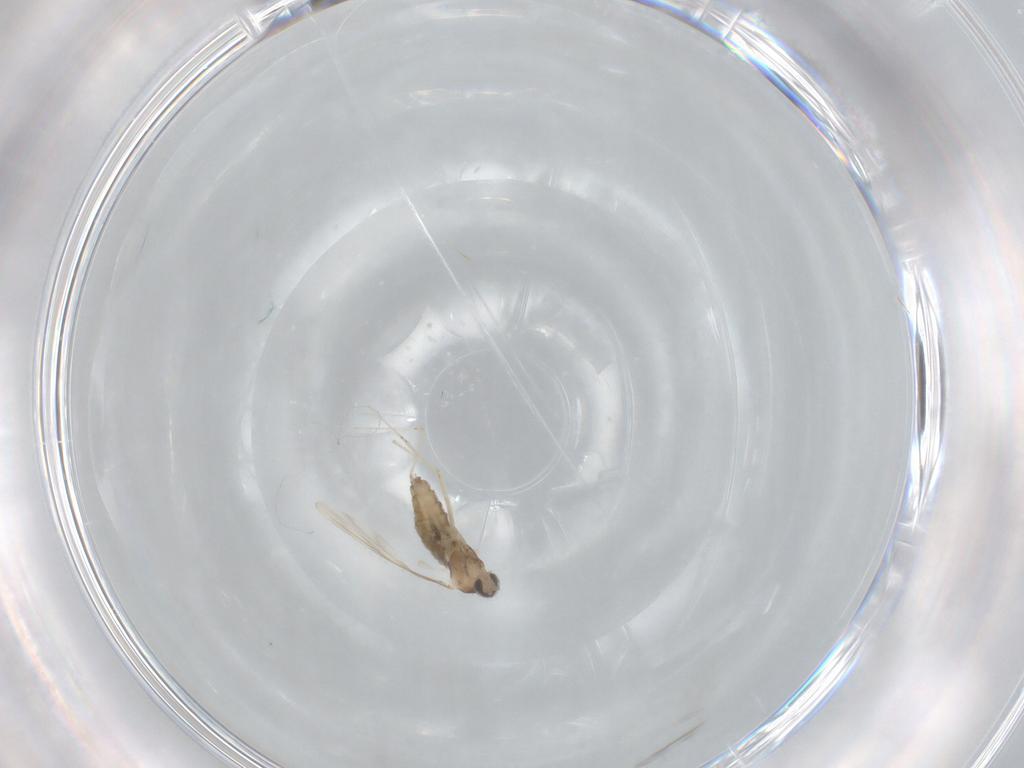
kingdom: Animalia
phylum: Arthropoda
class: Insecta
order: Diptera
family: Cecidomyiidae
